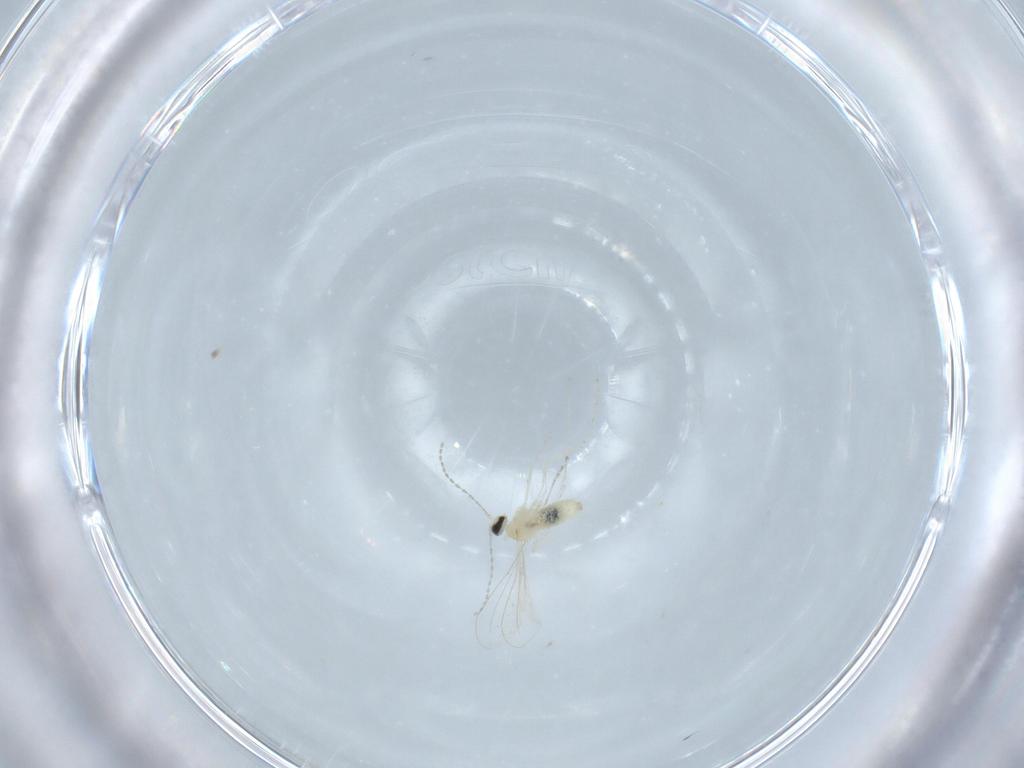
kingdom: Animalia
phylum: Arthropoda
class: Insecta
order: Diptera
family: Cecidomyiidae
